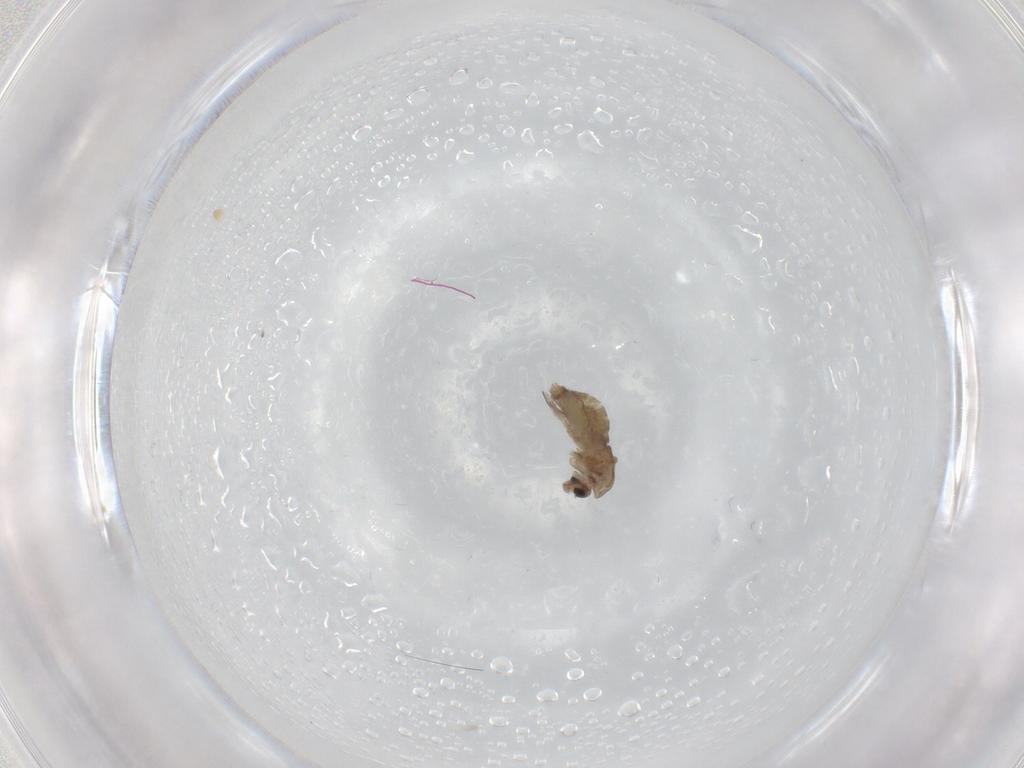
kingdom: Animalia
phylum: Arthropoda
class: Insecta
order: Diptera
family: Chironomidae
